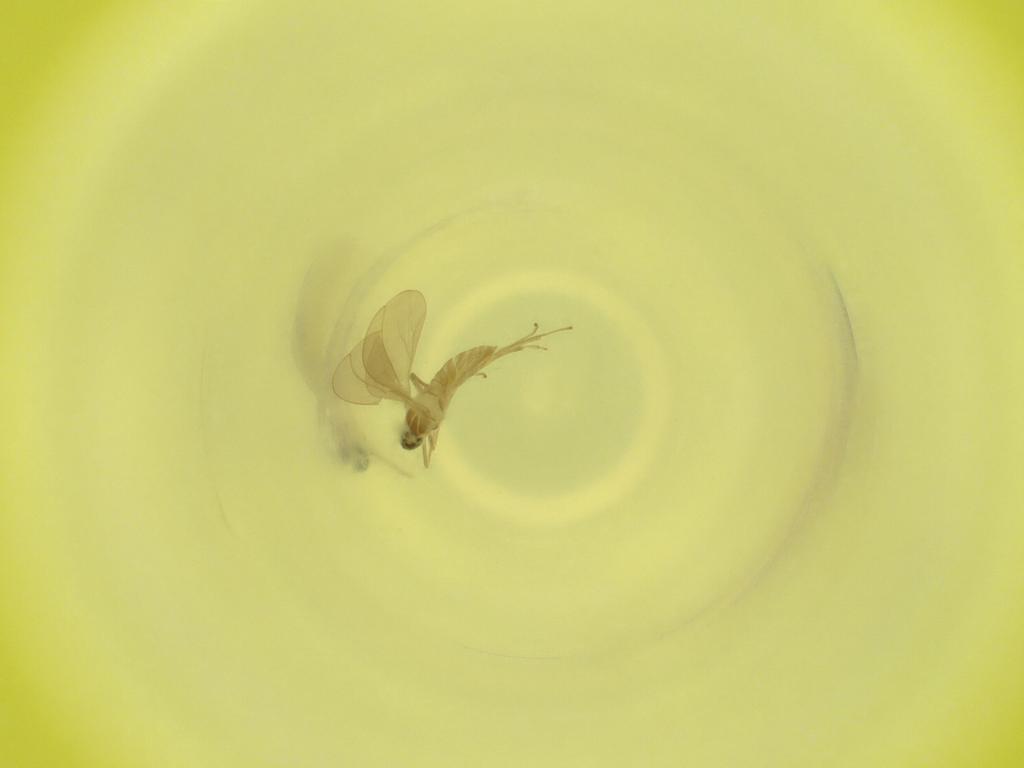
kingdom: Animalia
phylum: Arthropoda
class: Insecta
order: Diptera
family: Cecidomyiidae
